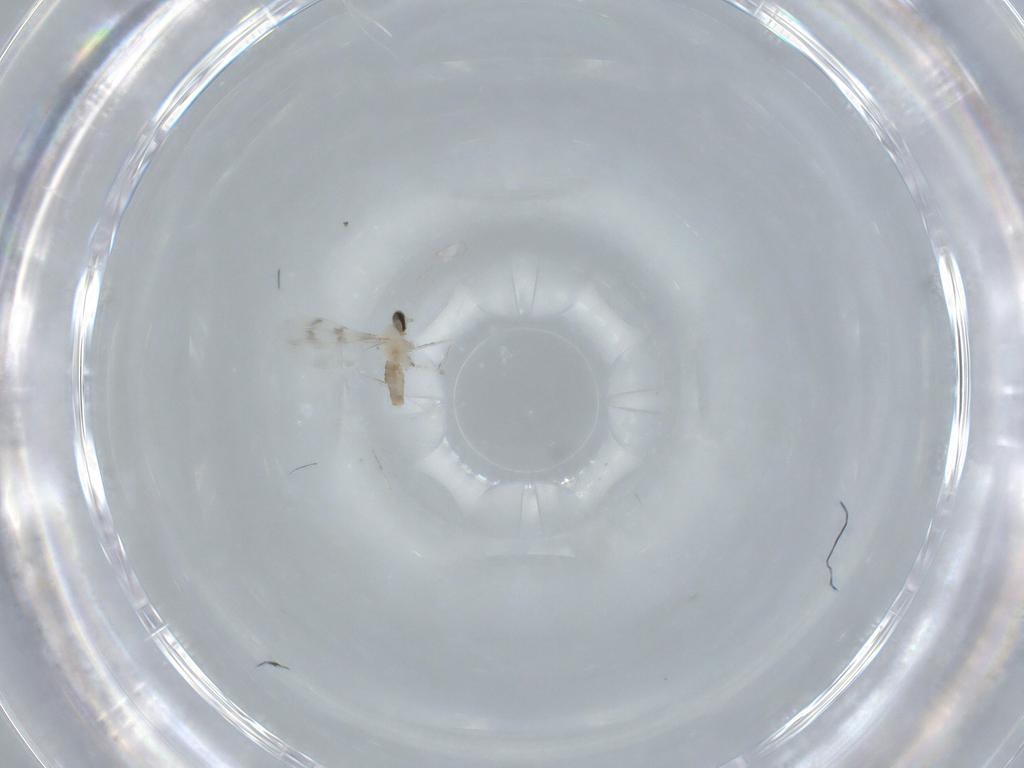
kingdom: Animalia
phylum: Arthropoda
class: Insecta
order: Diptera
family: Cecidomyiidae
